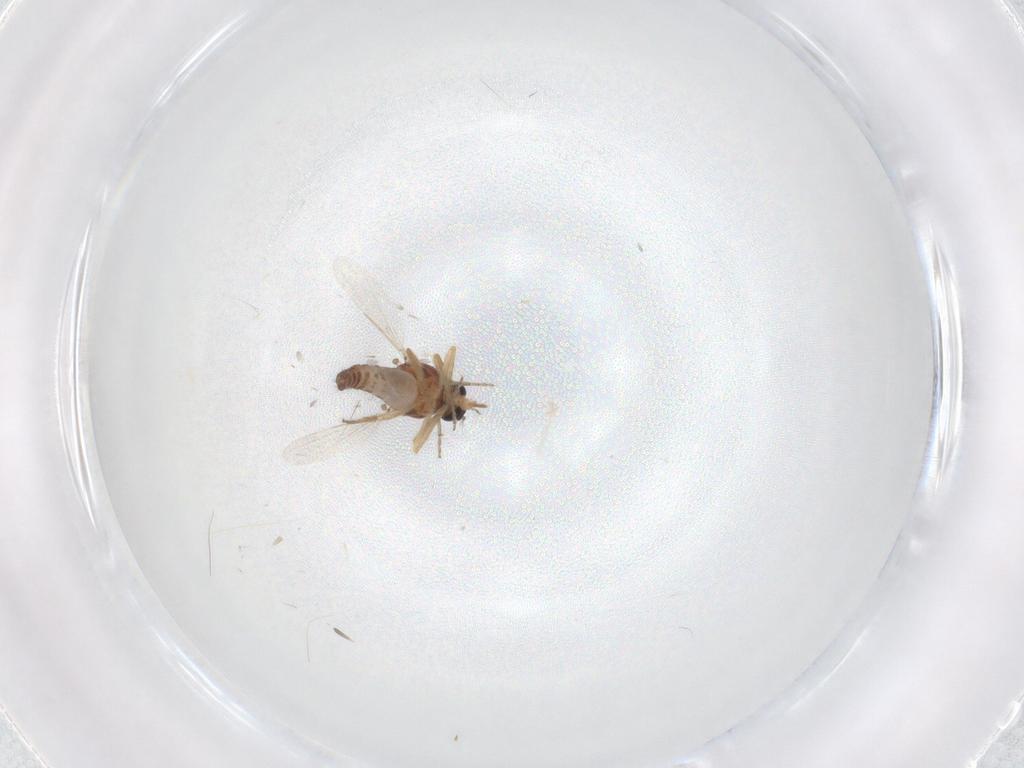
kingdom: Animalia
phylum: Arthropoda
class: Insecta
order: Diptera
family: Ceratopogonidae
